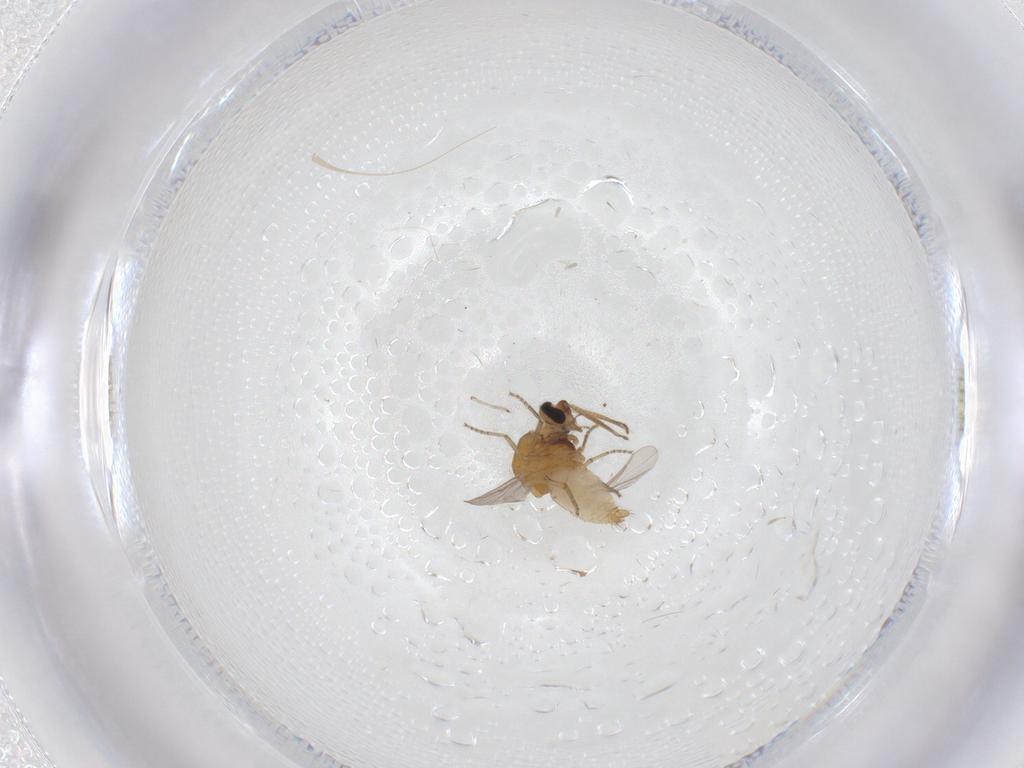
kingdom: Animalia
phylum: Arthropoda
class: Insecta
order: Diptera
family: Ceratopogonidae
